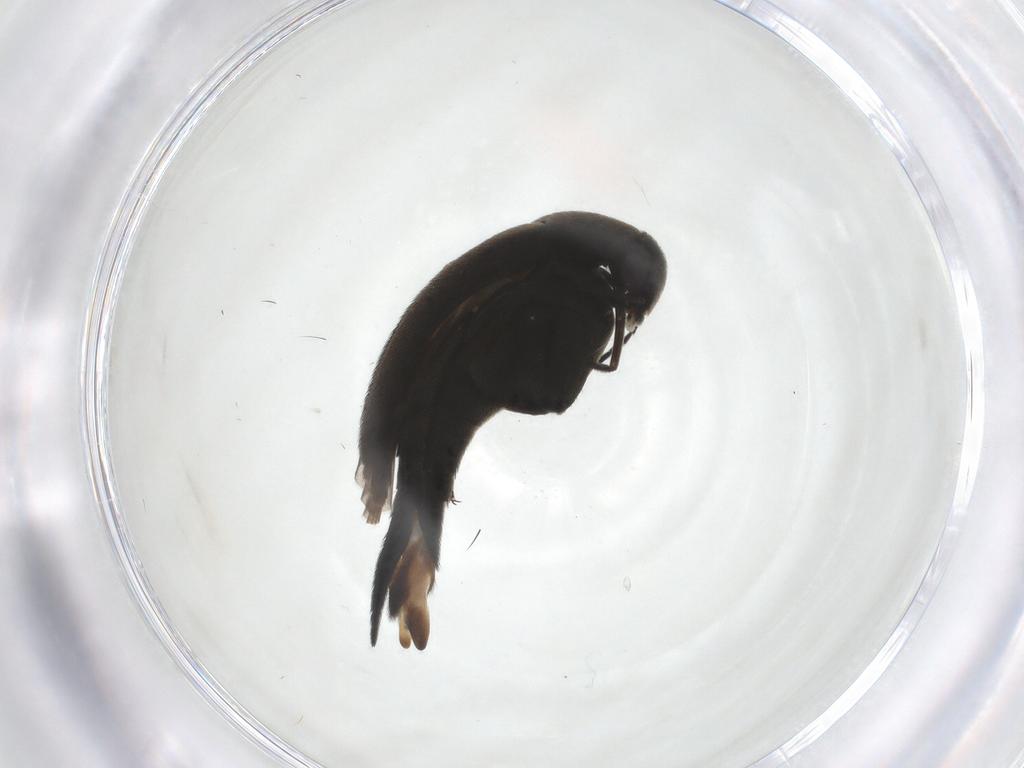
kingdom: Animalia
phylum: Arthropoda
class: Insecta
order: Coleoptera
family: Mordellidae
